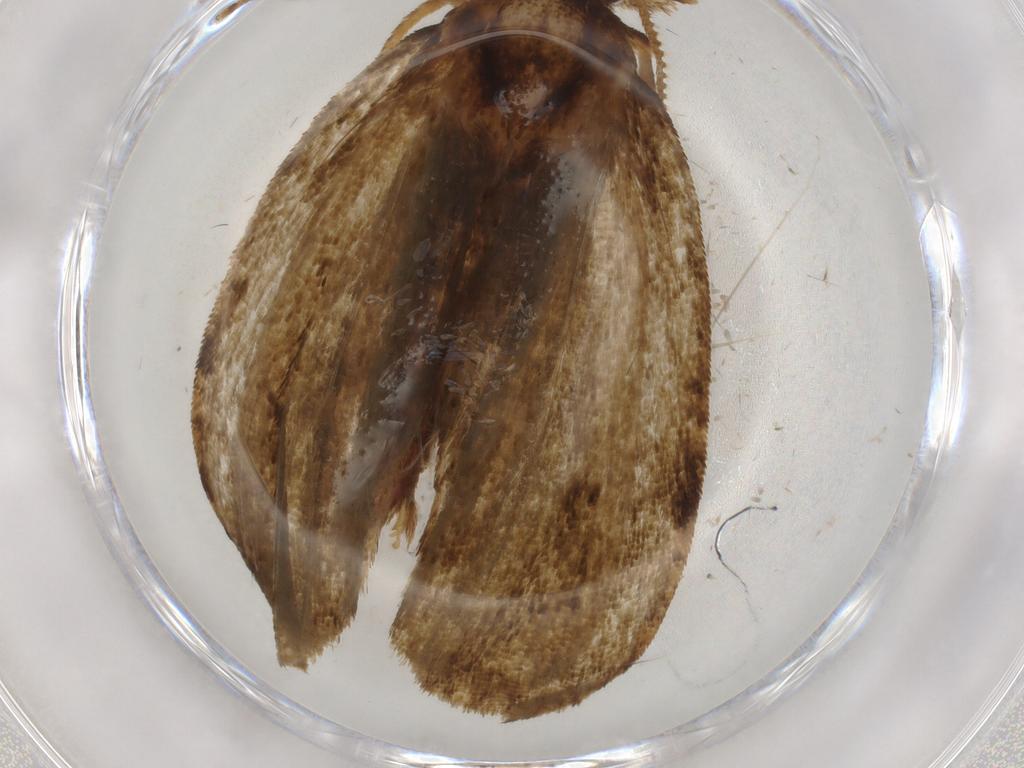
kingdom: Animalia
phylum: Arthropoda
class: Insecta
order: Lepidoptera
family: Geometridae
